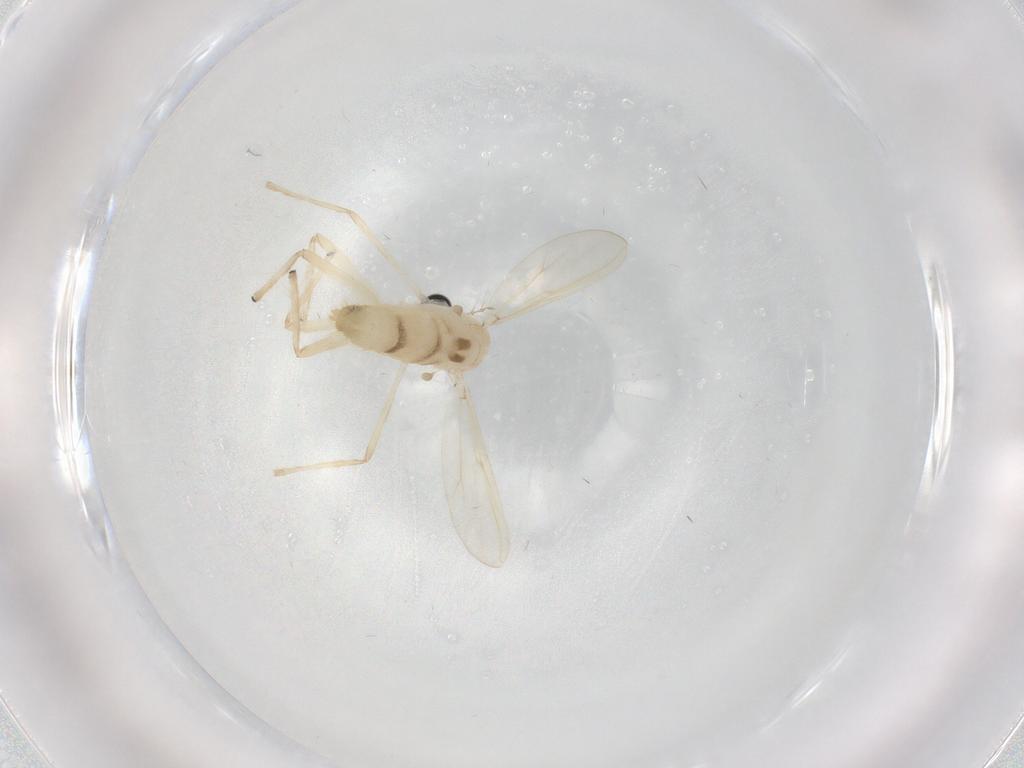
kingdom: Animalia
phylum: Arthropoda
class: Insecta
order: Diptera
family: Chironomidae
